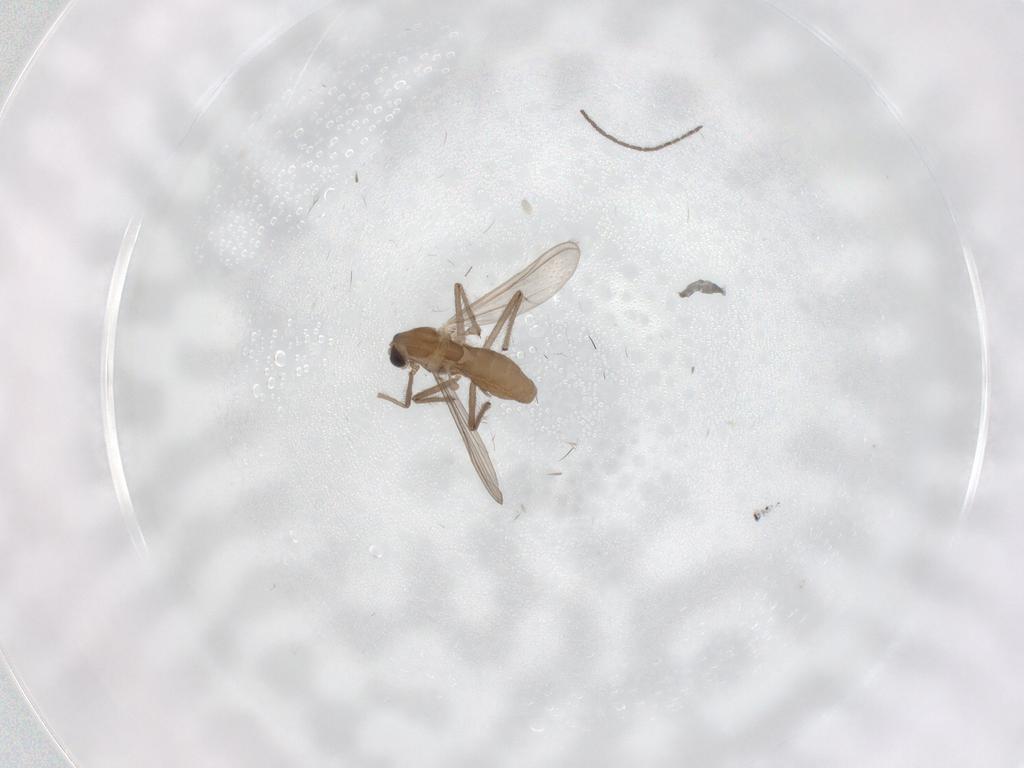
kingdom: Animalia
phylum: Arthropoda
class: Insecta
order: Diptera
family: Chironomidae
